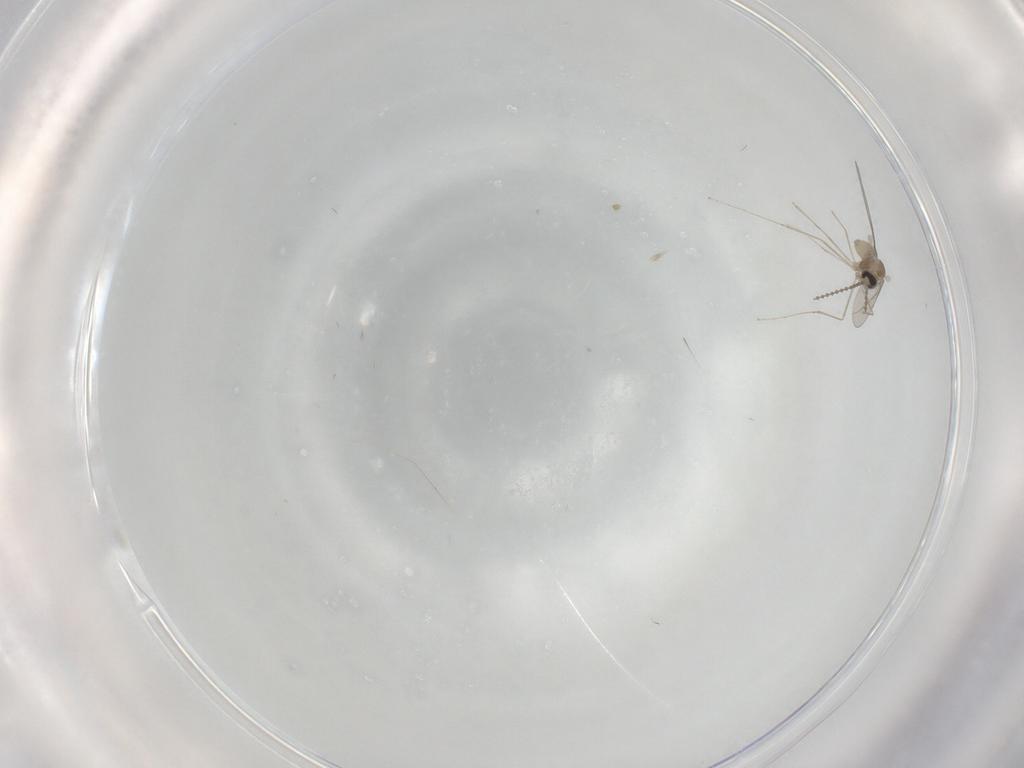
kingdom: Animalia
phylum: Arthropoda
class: Insecta
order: Diptera
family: Cecidomyiidae
